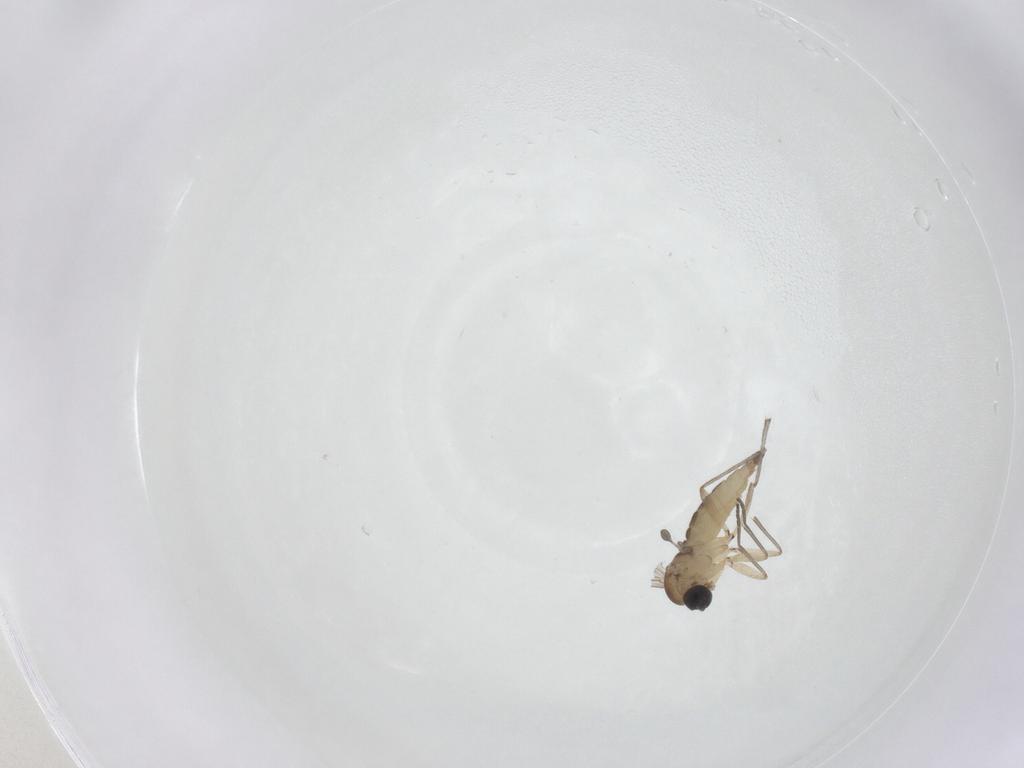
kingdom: Animalia
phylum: Arthropoda
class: Insecta
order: Diptera
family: Sciaridae
